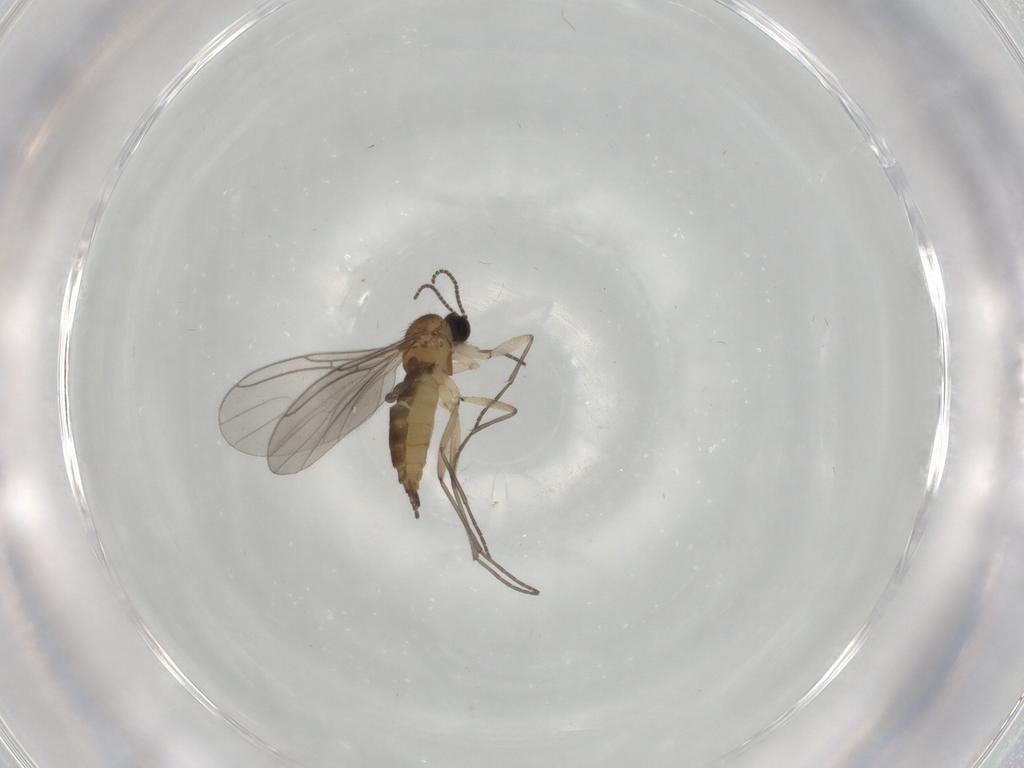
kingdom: Animalia
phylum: Arthropoda
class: Insecta
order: Diptera
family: Sciaridae
